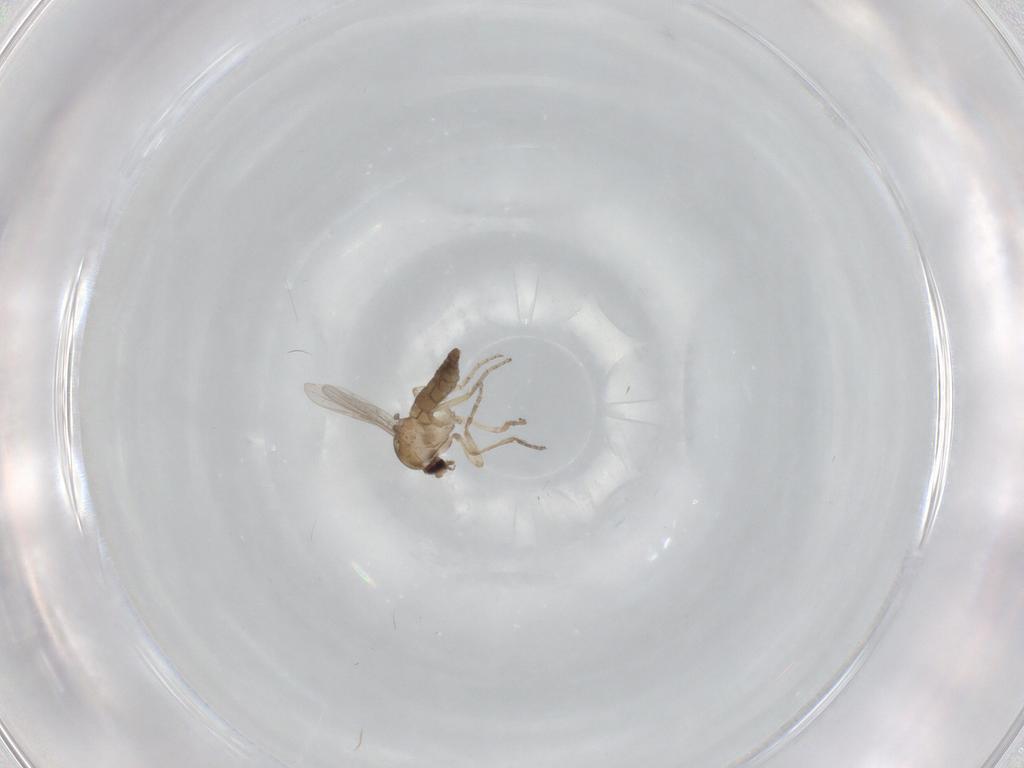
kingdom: Animalia
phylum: Arthropoda
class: Insecta
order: Diptera
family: Ceratopogonidae
